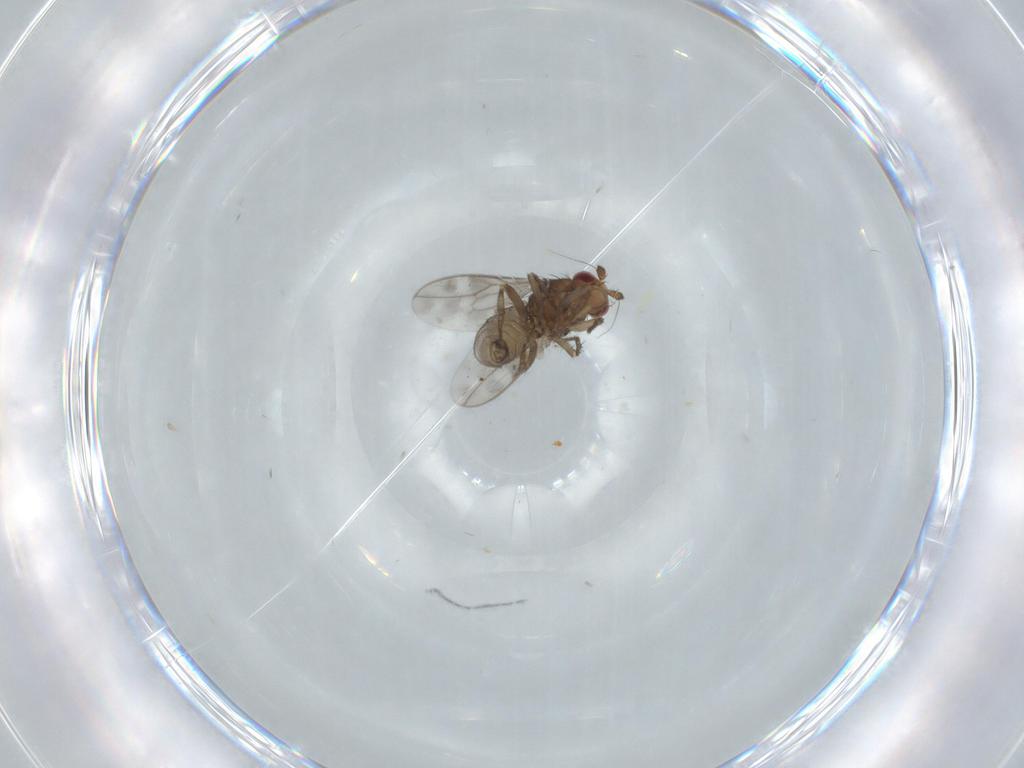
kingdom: Animalia
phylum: Arthropoda
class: Insecta
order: Diptera
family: Sphaeroceridae
